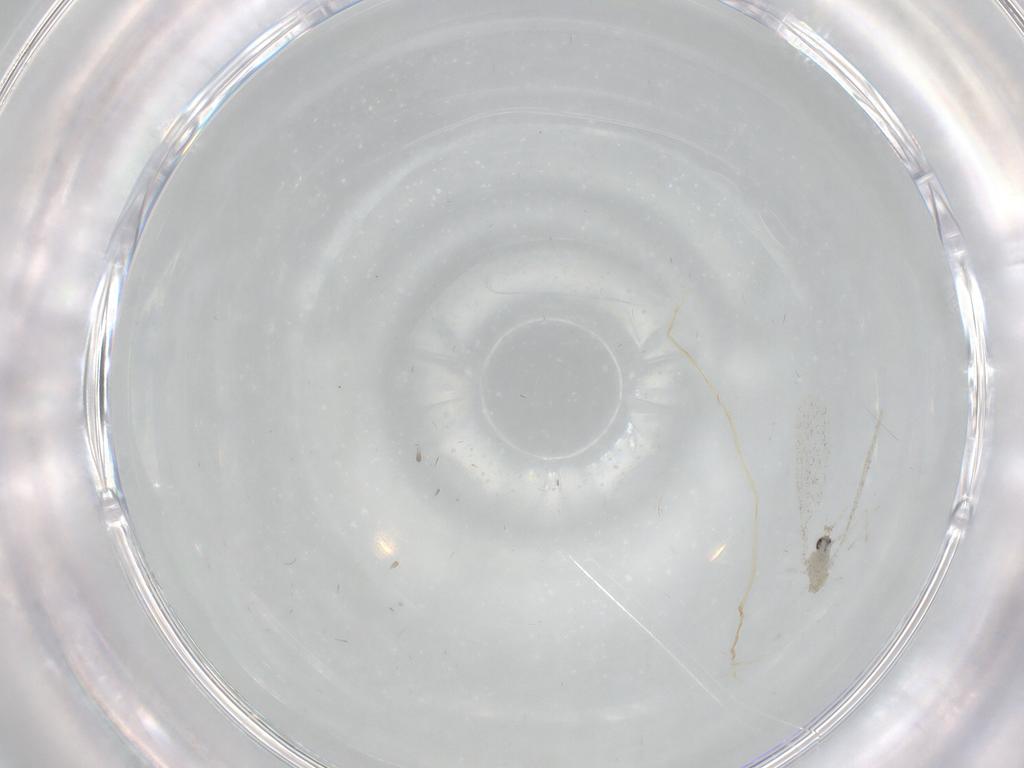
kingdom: Animalia
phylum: Arthropoda
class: Insecta
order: Diptera
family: Cecidomyiidae
